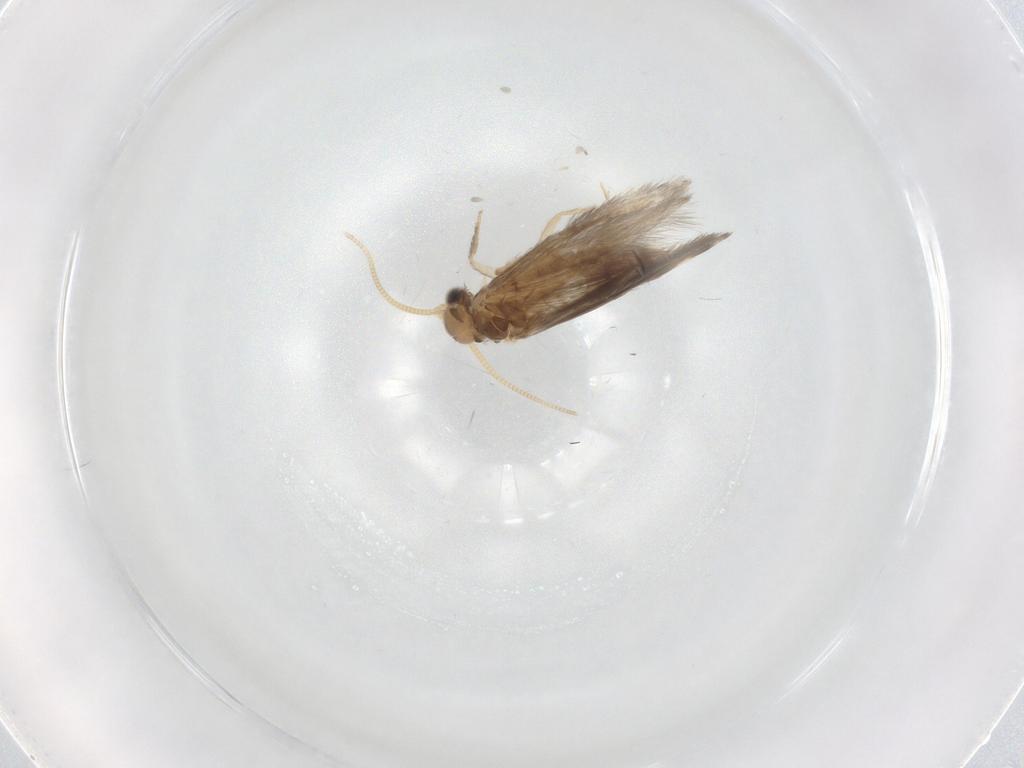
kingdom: Animalia
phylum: Arthropoda
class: Insecta
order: Trichoptera
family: Hydroptilidae
